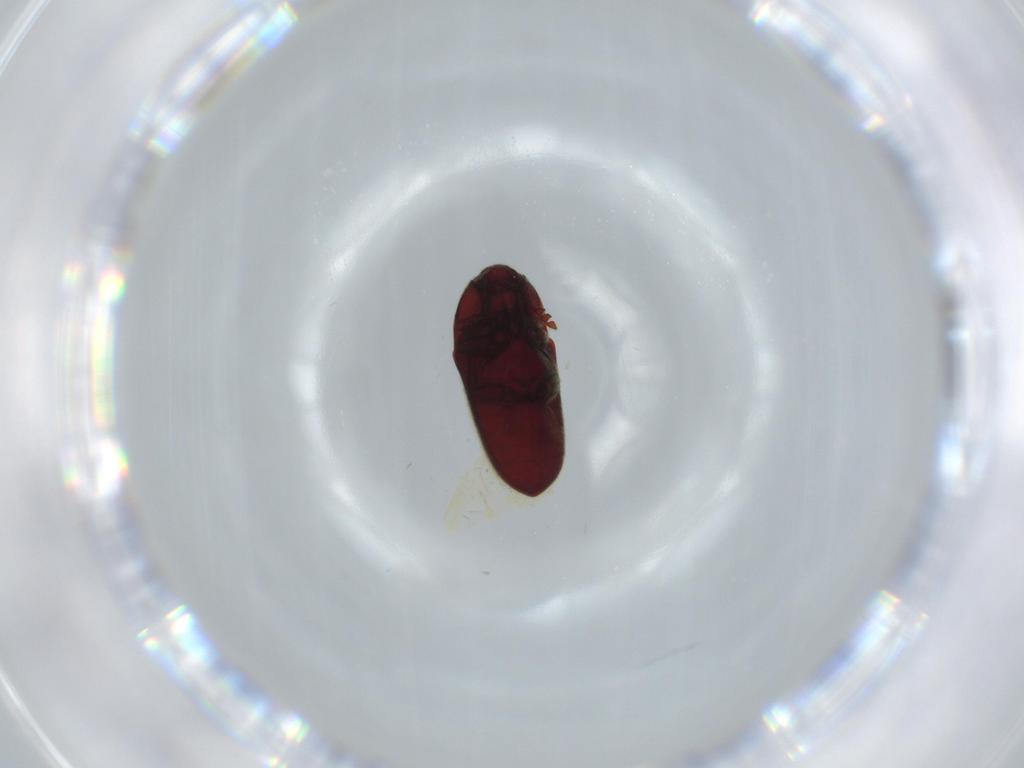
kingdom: Animalia
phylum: Arthropoda
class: Insecta
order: Coleoptera
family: Throscidae
